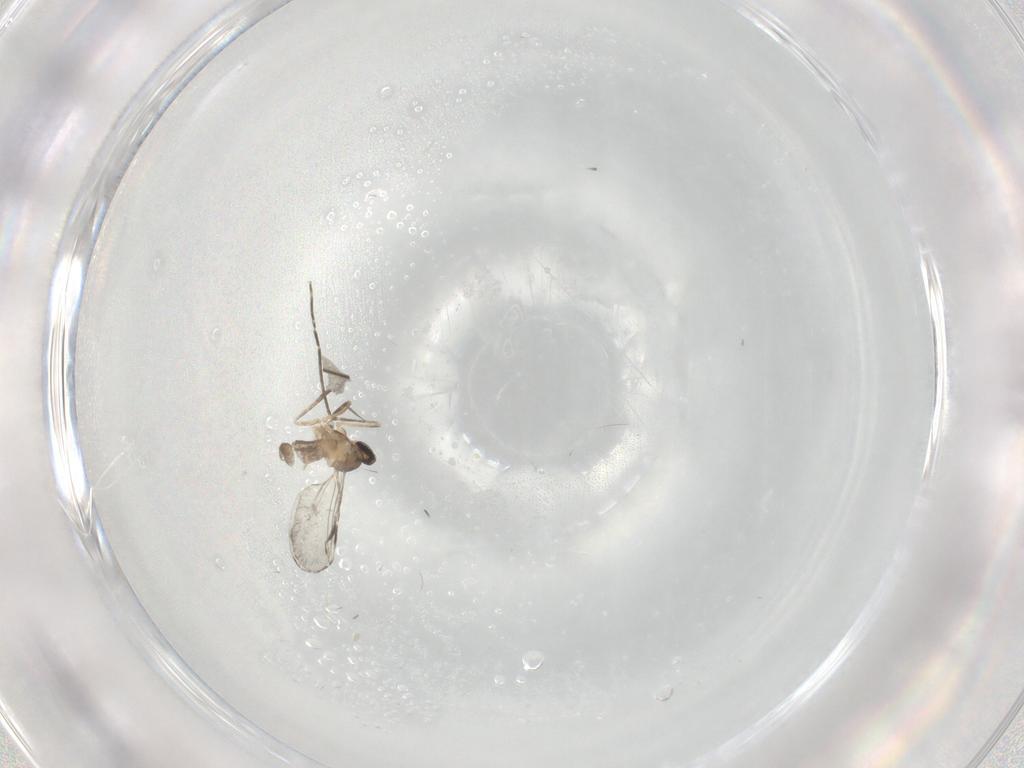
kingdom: Animalia
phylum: Arthropoda
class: Insecta
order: Diptera
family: Cecidomyiidae
